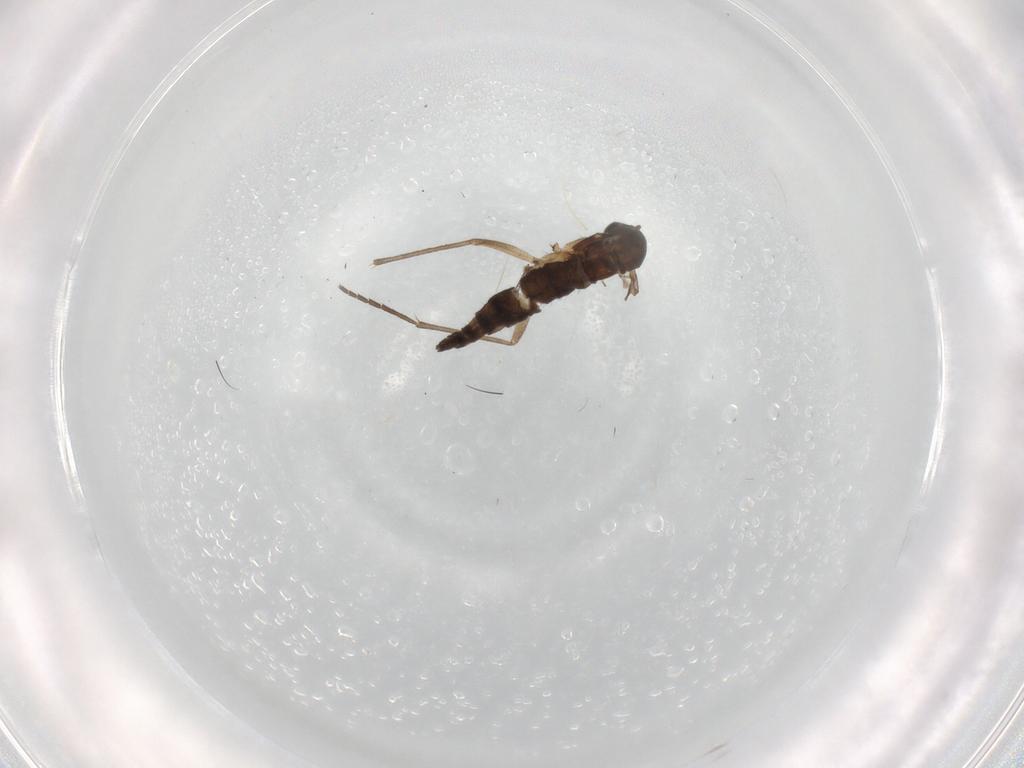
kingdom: Animalia
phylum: Arthropoda
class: Insecta
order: Diptera
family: Sciaridae
